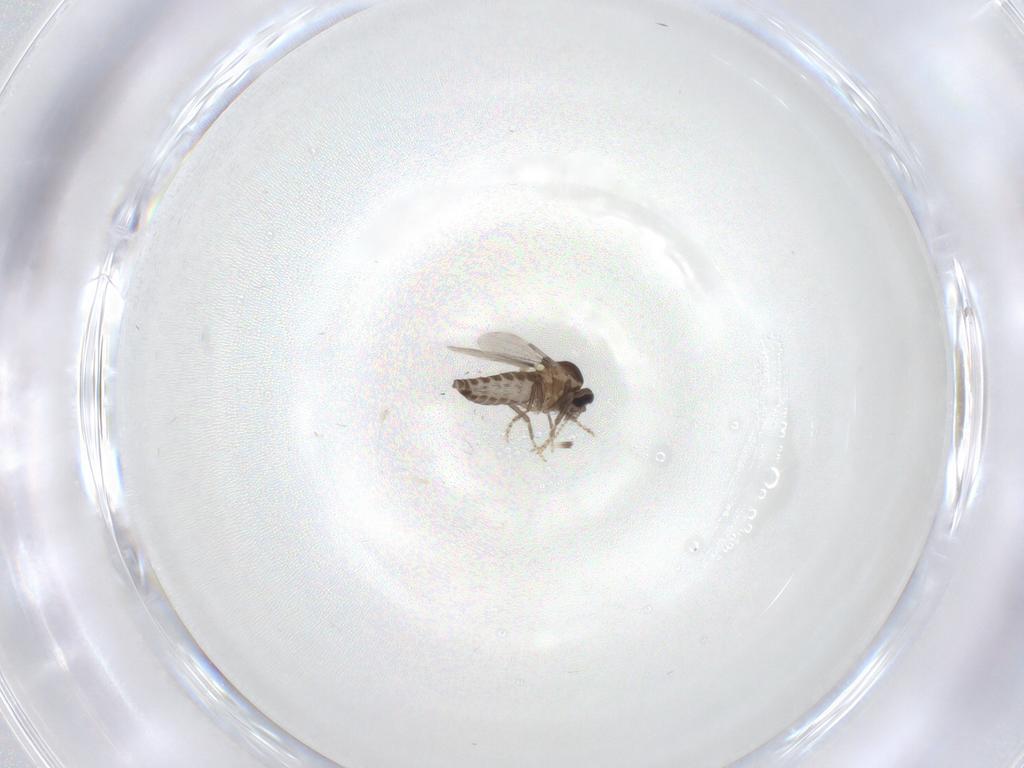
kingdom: Animalia
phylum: Arthropoda
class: Insecta
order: Diptera
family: Ceratopogonidae
